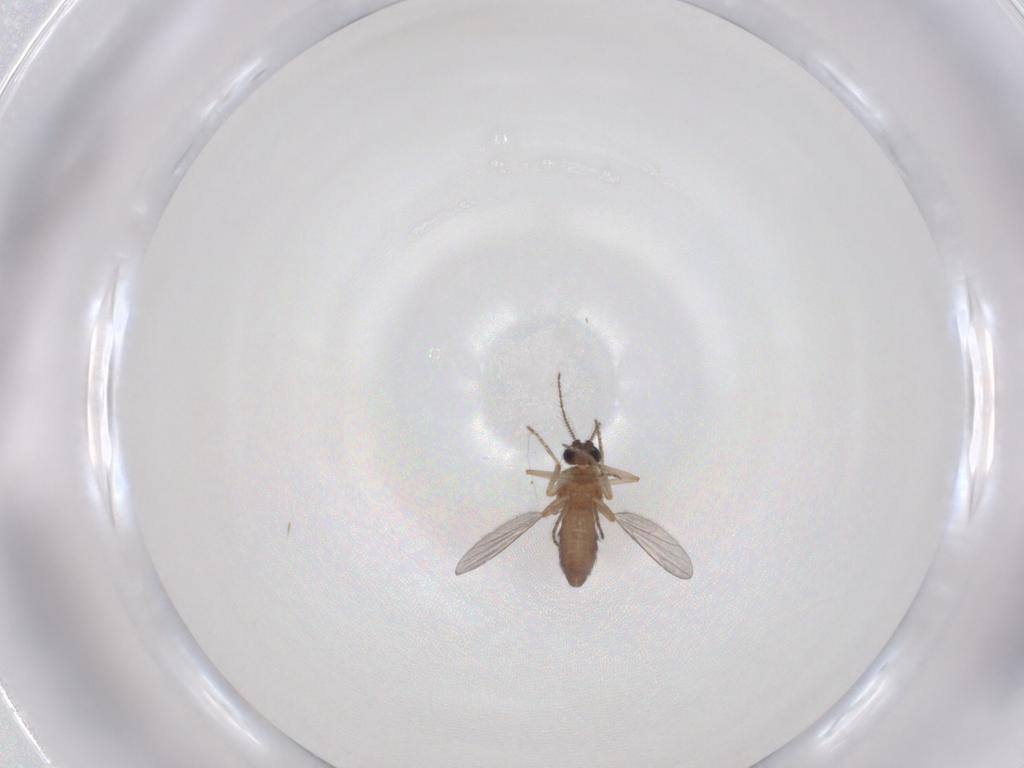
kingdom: Animalia
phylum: Arthropoda
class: Insecta
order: Diptera
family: Ceratopogonidae
